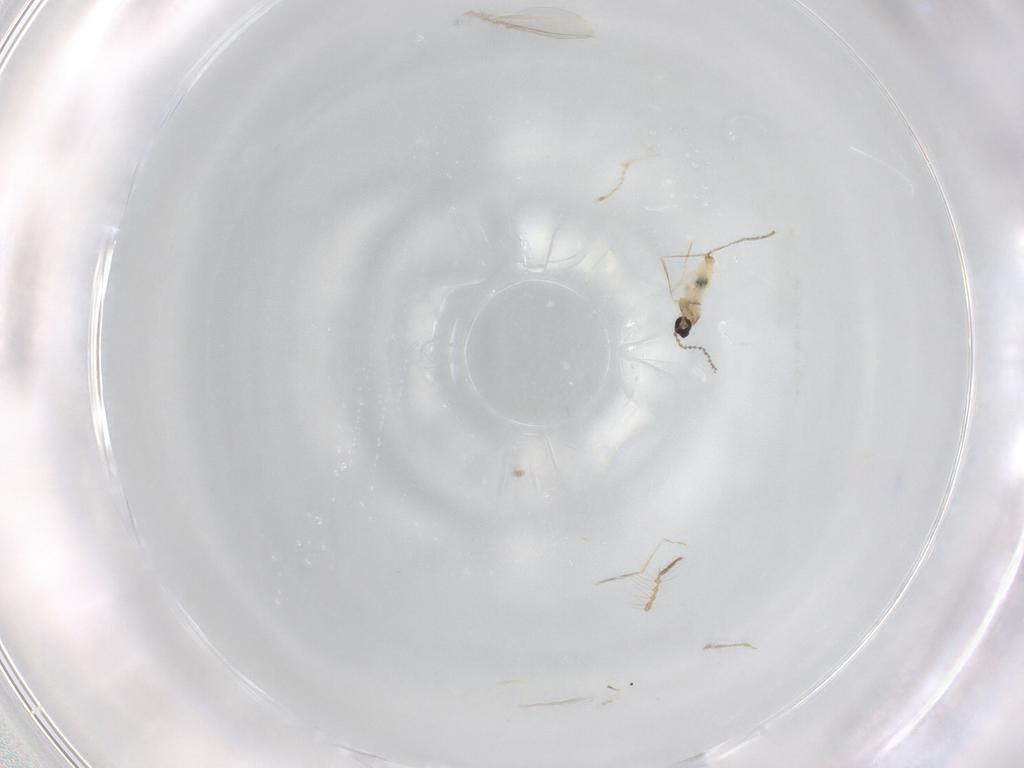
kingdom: Animalia
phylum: Arthropoda
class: Insecta
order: Diptera
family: Cecidomyiidae
